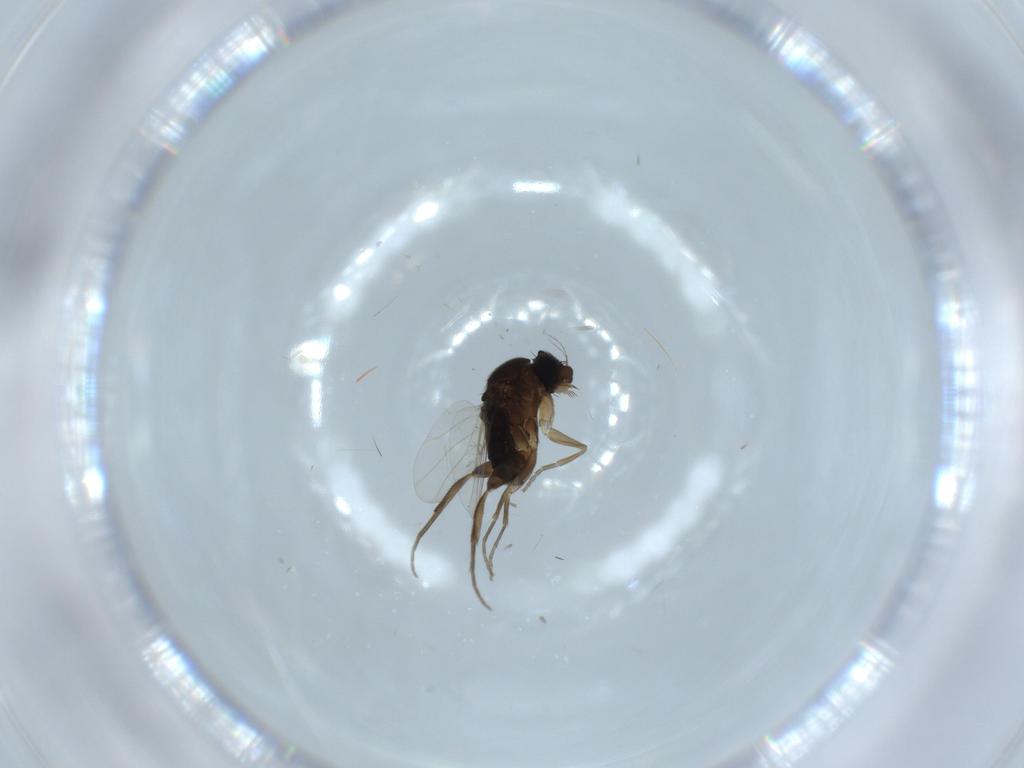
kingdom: Animalia
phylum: Arthropoda
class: Insecta
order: Diptera
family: Phoridae
